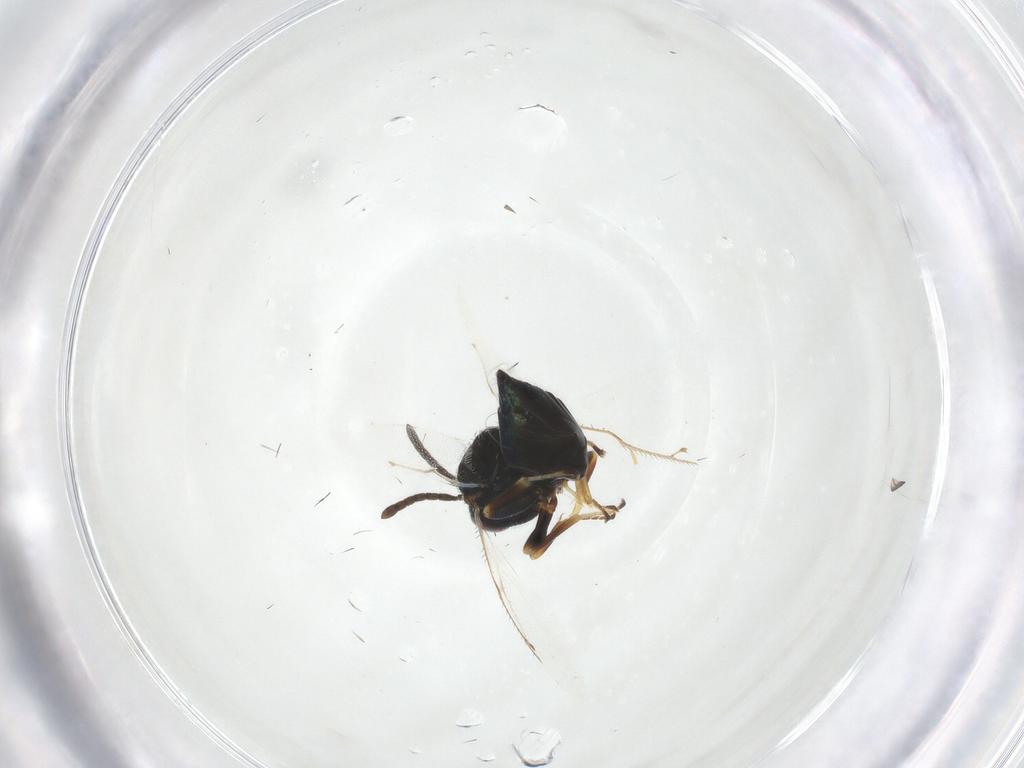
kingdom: Animalia
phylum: Arthropoda
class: Insecta
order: Hymenoptera
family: Pteromalidae
